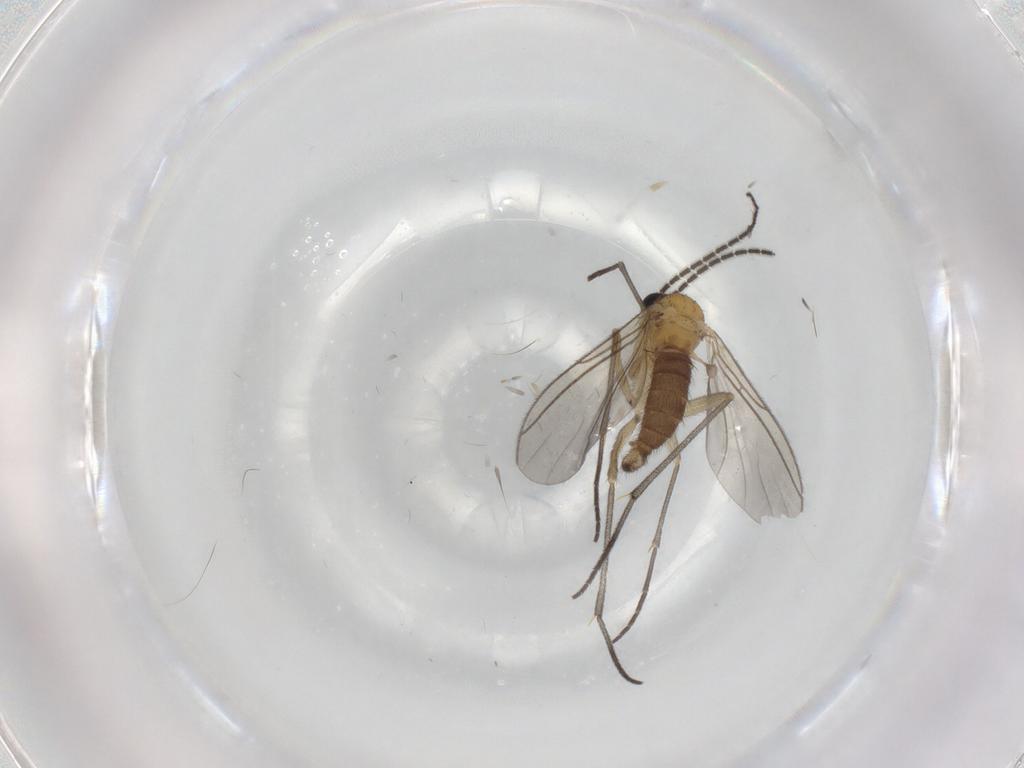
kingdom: Animalia
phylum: Arthropoda
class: Insecta
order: Diptera
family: Sciaridae
